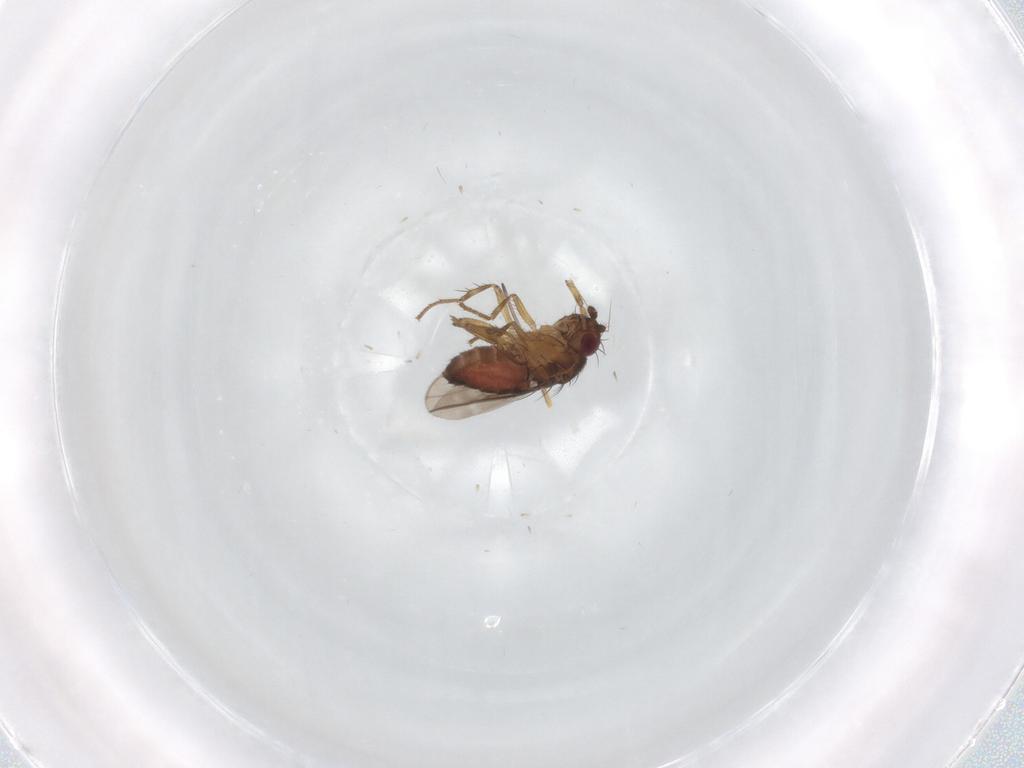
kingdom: Animalia
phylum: Arthropoda
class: Insecta
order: Diptera
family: Sphaeroceridae
